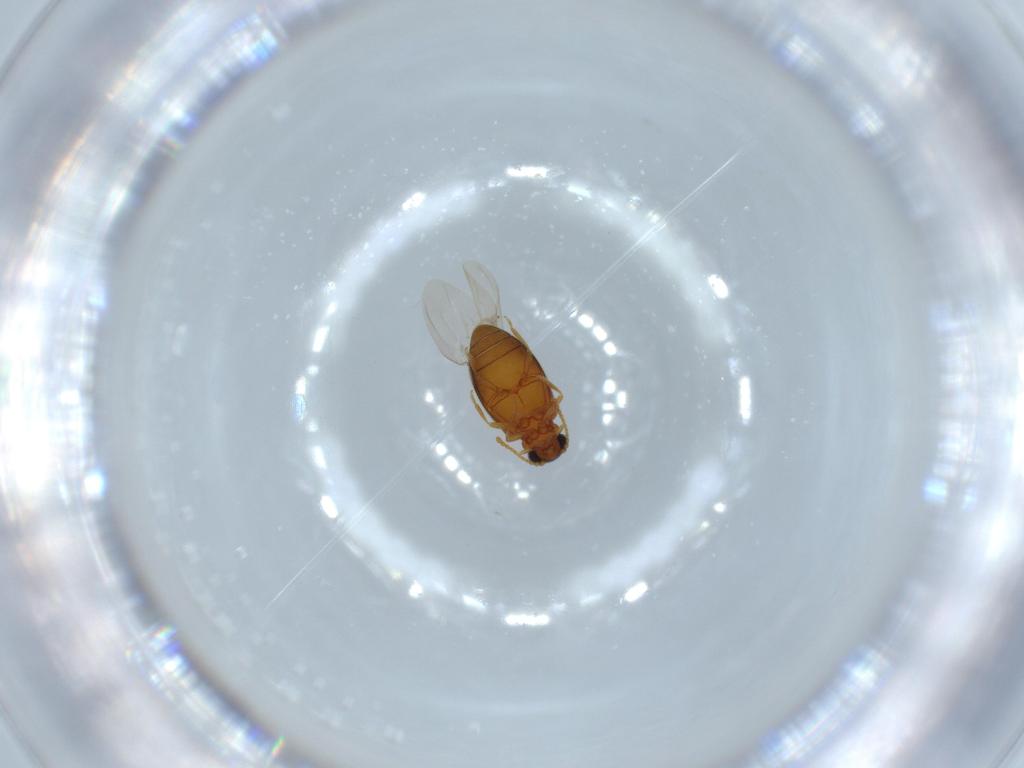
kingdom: Animalia
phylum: Arthropoda
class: Insecta
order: Coleoptera
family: Aderidae
